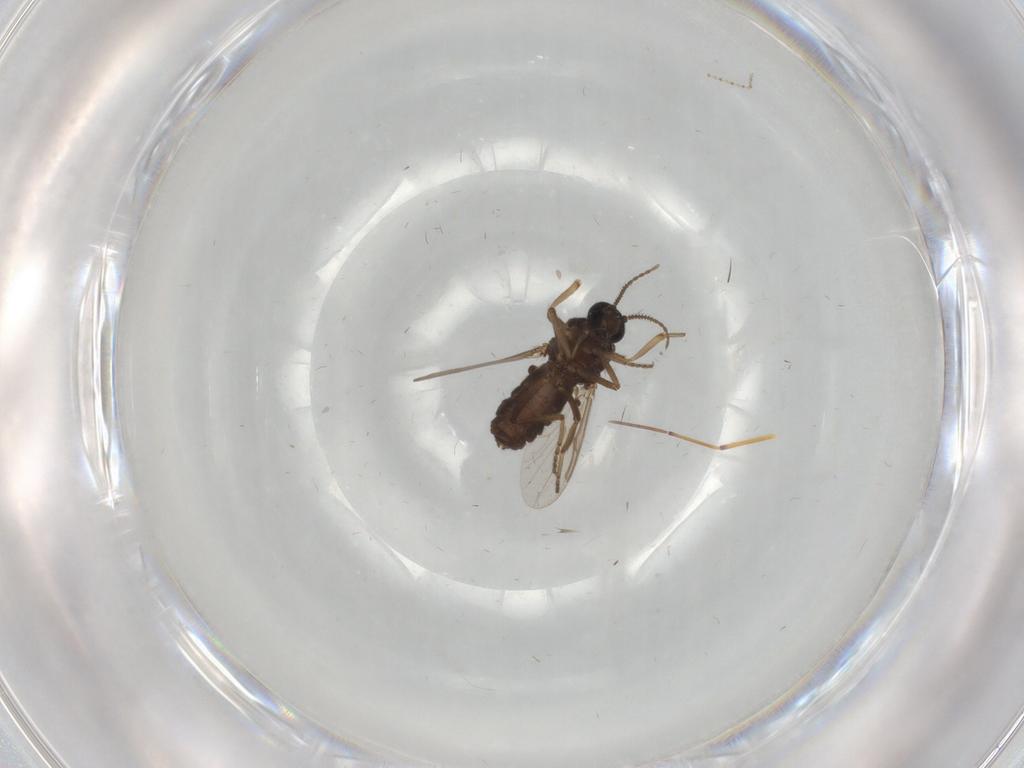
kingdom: Animalia
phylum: Arthropoda
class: Insecta
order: Diptera
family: Ceratopogonidae
